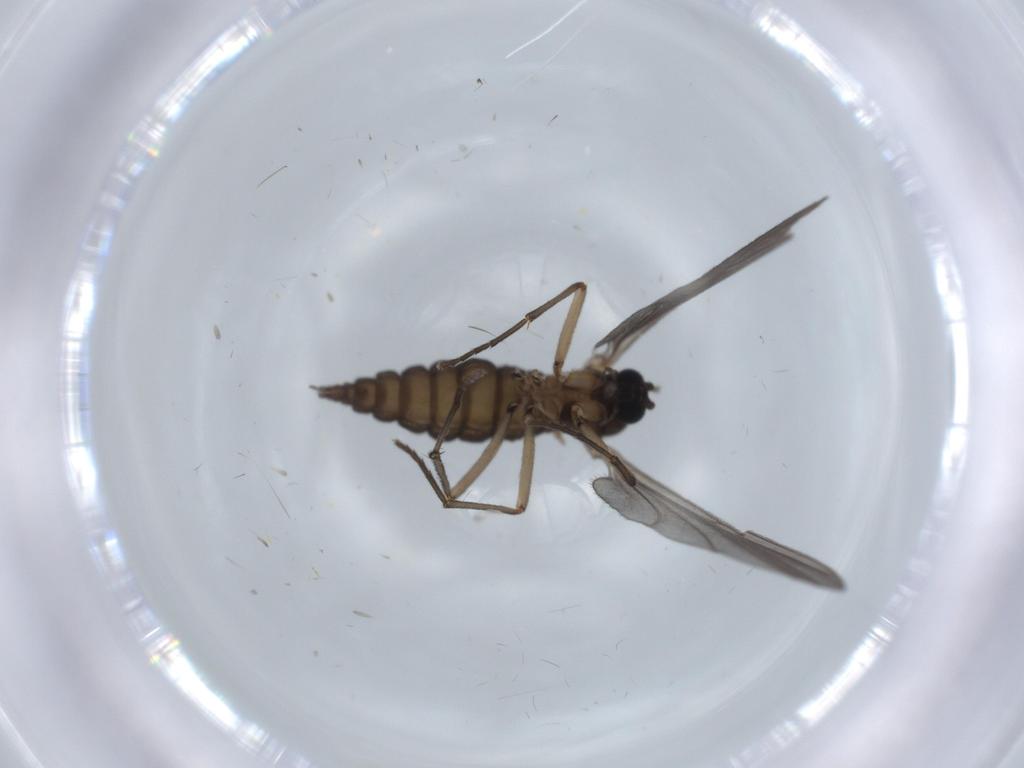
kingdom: Animalia
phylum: Arthropoda
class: Insecta
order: Diptera
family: Sciaridae
